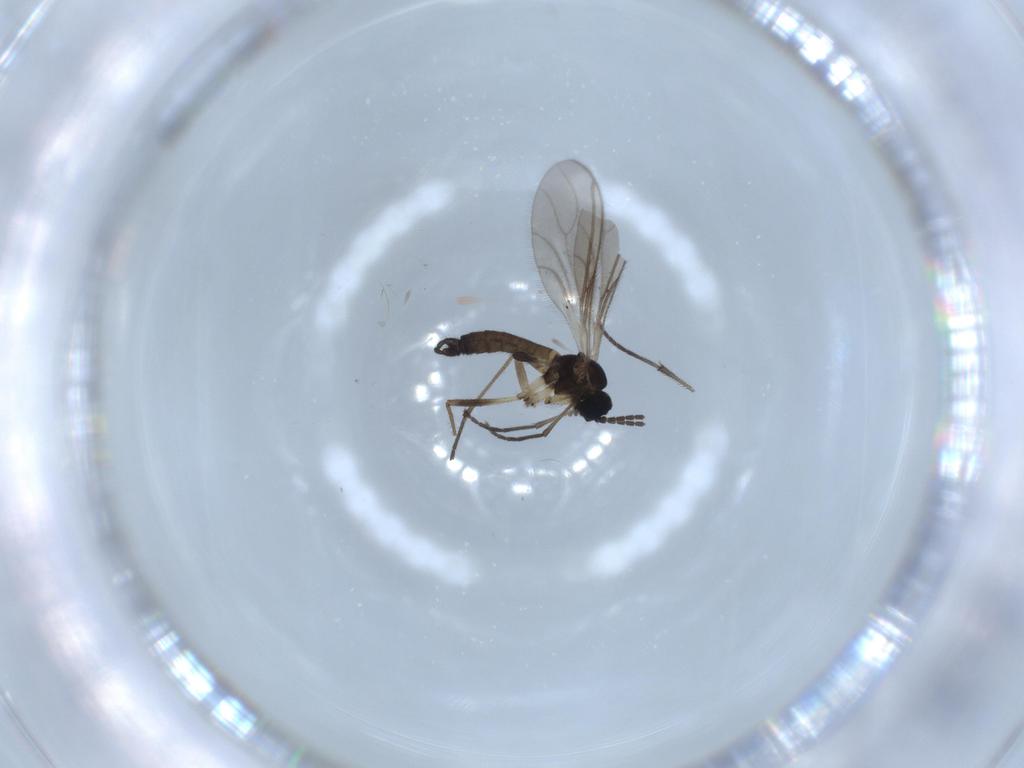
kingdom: Animalia
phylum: Arthropoda
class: Insecta
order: Diptera
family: Sciaridae
